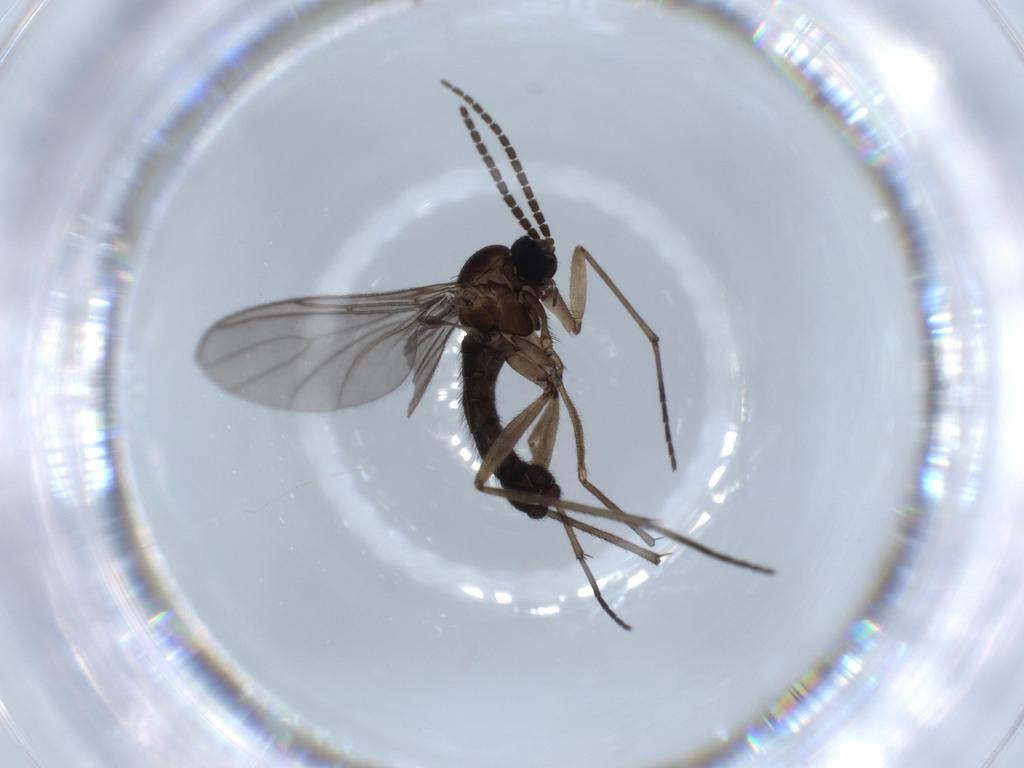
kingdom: Animalia
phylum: Arthropoda
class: Insecta
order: Diptera
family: Sciaridae
